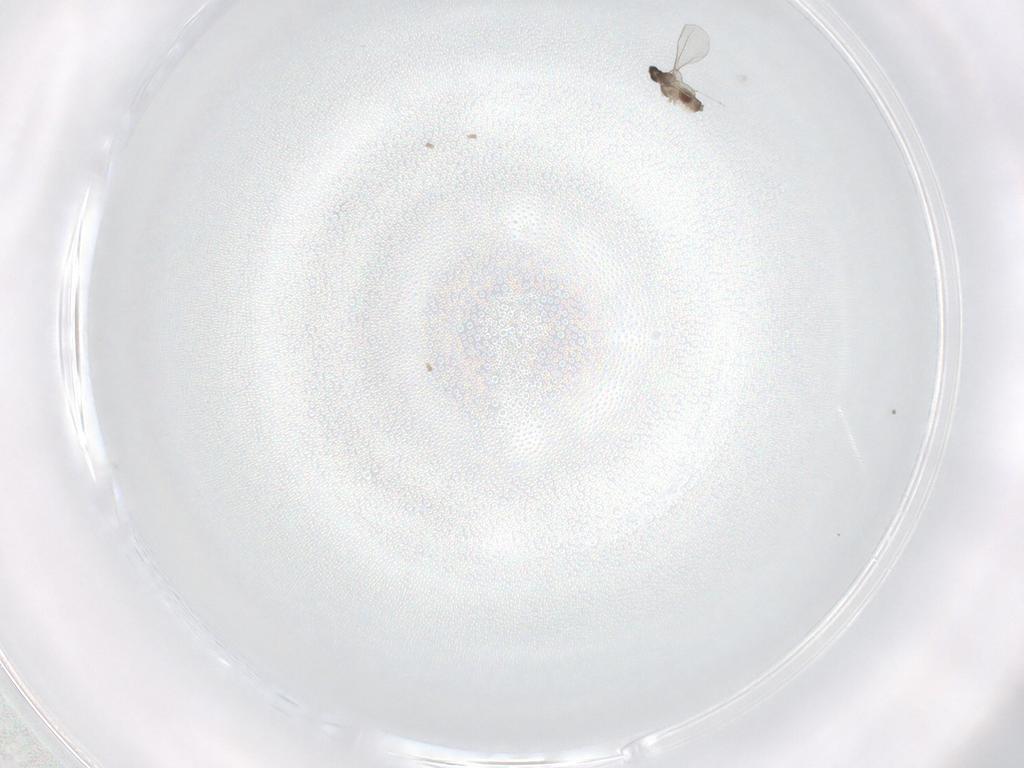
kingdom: Animalia
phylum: Arthropoda
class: Insecta
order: Diptera
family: Cecidomyiidae
